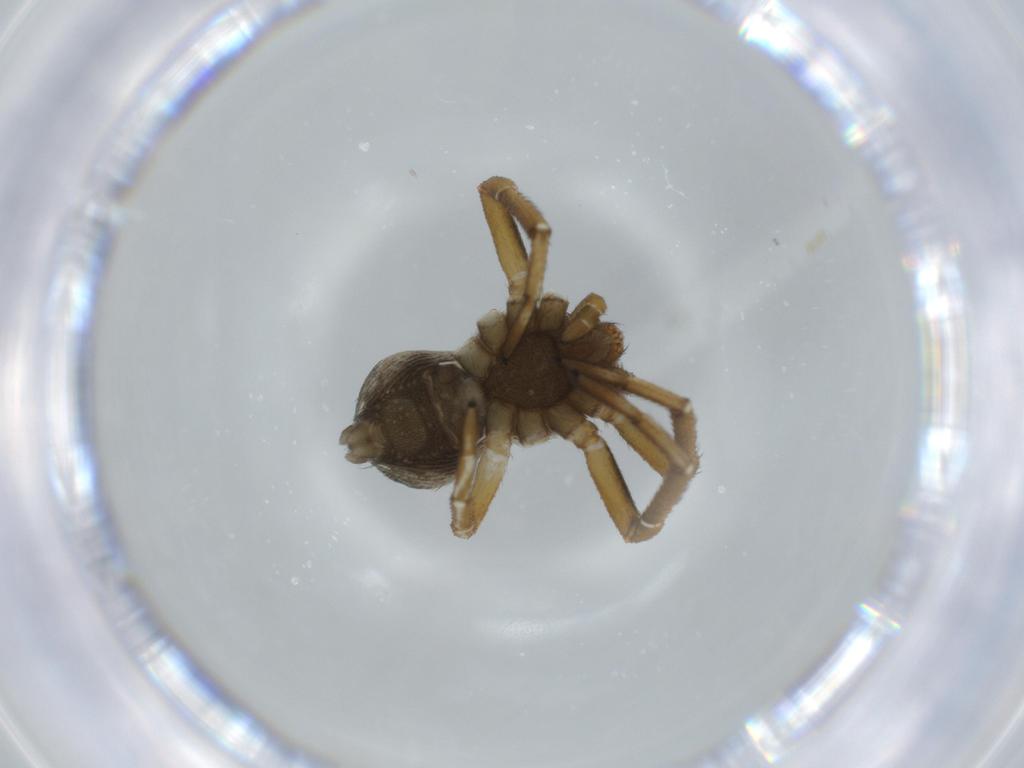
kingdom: Animalia
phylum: Arthropoda
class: Arachnida
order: Araneae
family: Thomisidae
